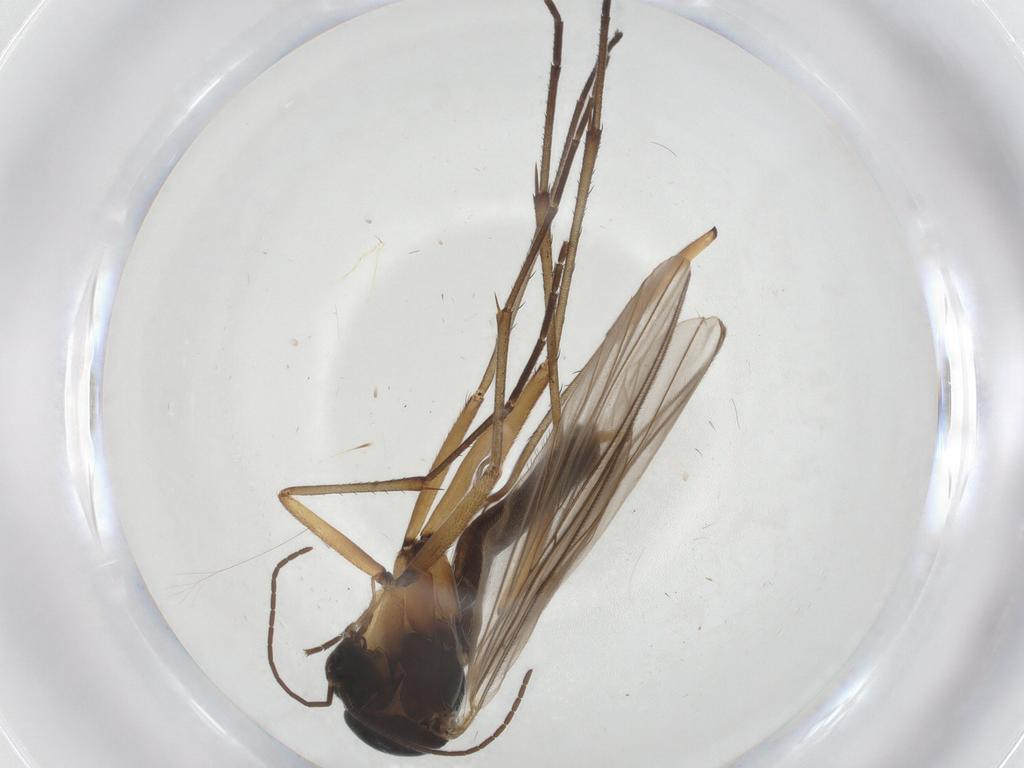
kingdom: Animalia
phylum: Arthropoda
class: Insecta
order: Diptera
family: Mycetophilidae
